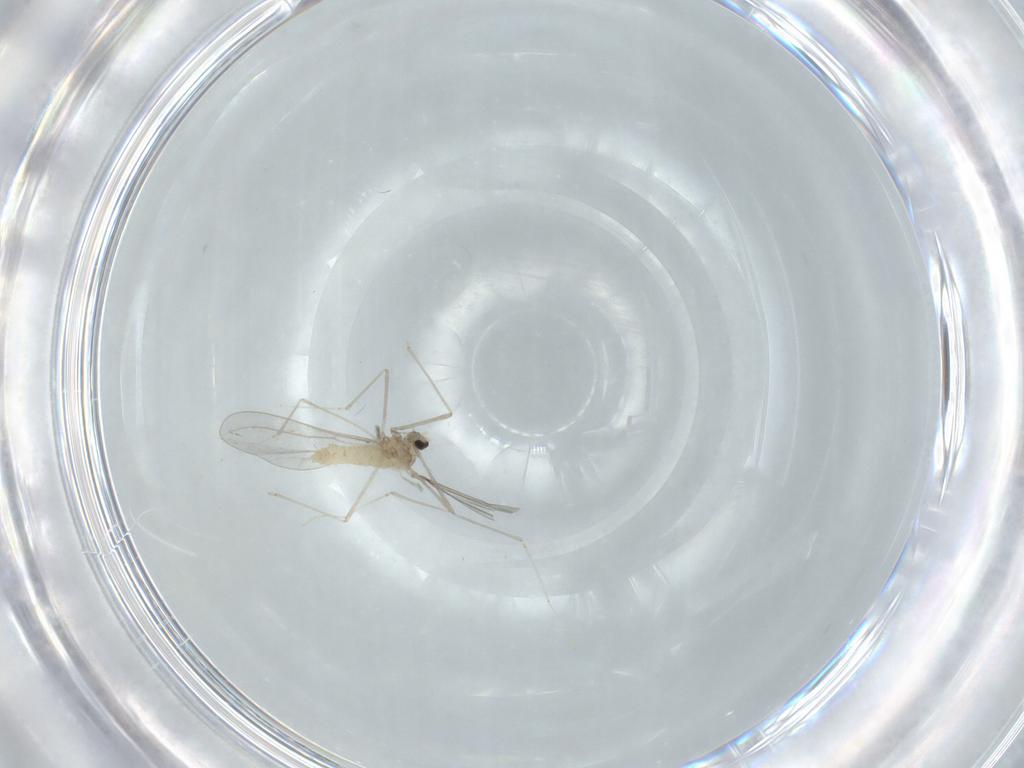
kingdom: Animalia
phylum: Arthropoda
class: Insecta
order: Diptera
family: Cecidomyiidae
